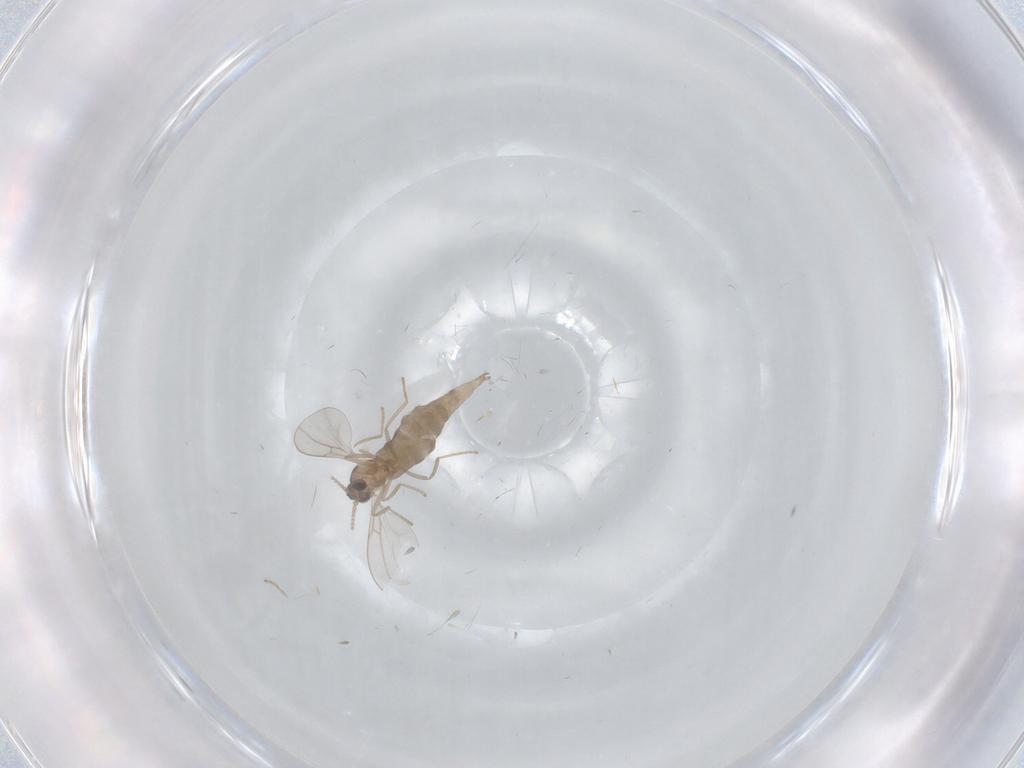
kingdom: Animalia
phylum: Arthropoda
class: Insecta
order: Diptera
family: Cecidomyiidae
